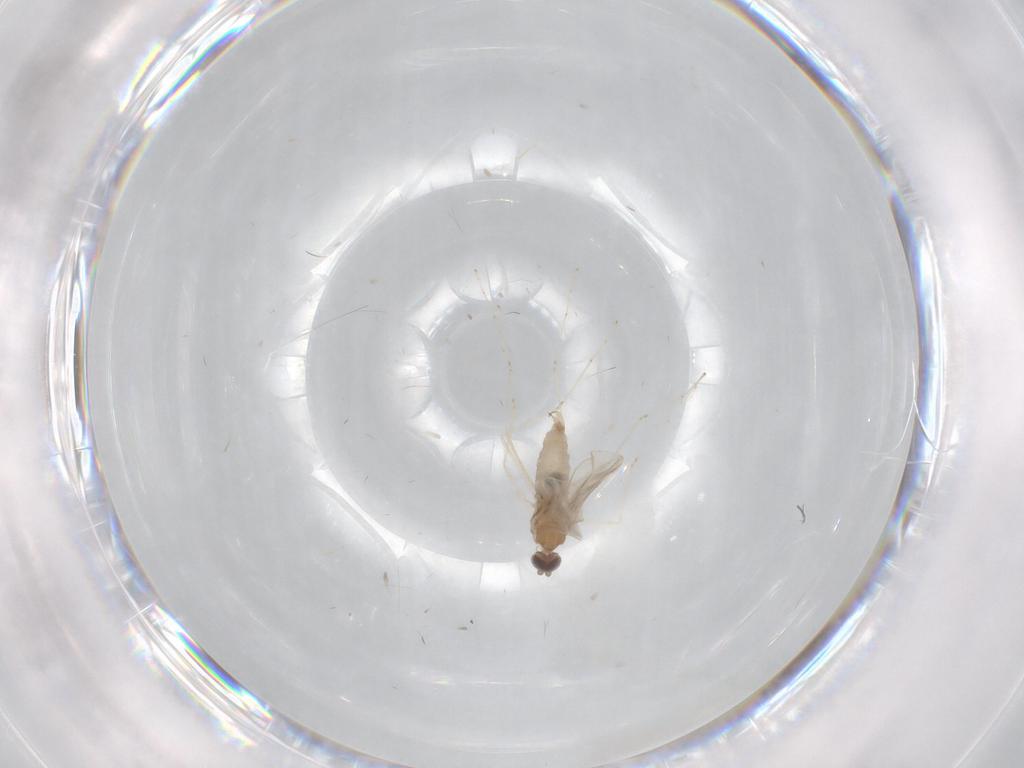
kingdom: Animalia
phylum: Arthropoda
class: Insecta
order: Diptera
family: Cecidomyiidae
